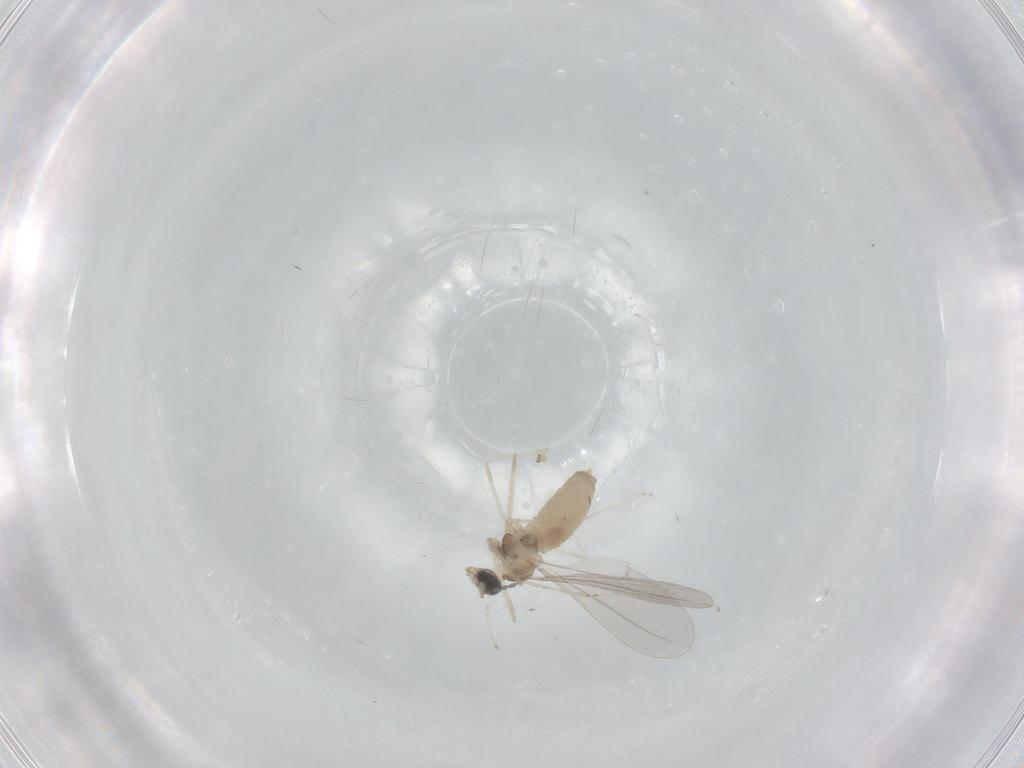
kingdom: Animalia
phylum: Arthropoda
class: Insecta
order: Diptera
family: Cecidomyiidae
